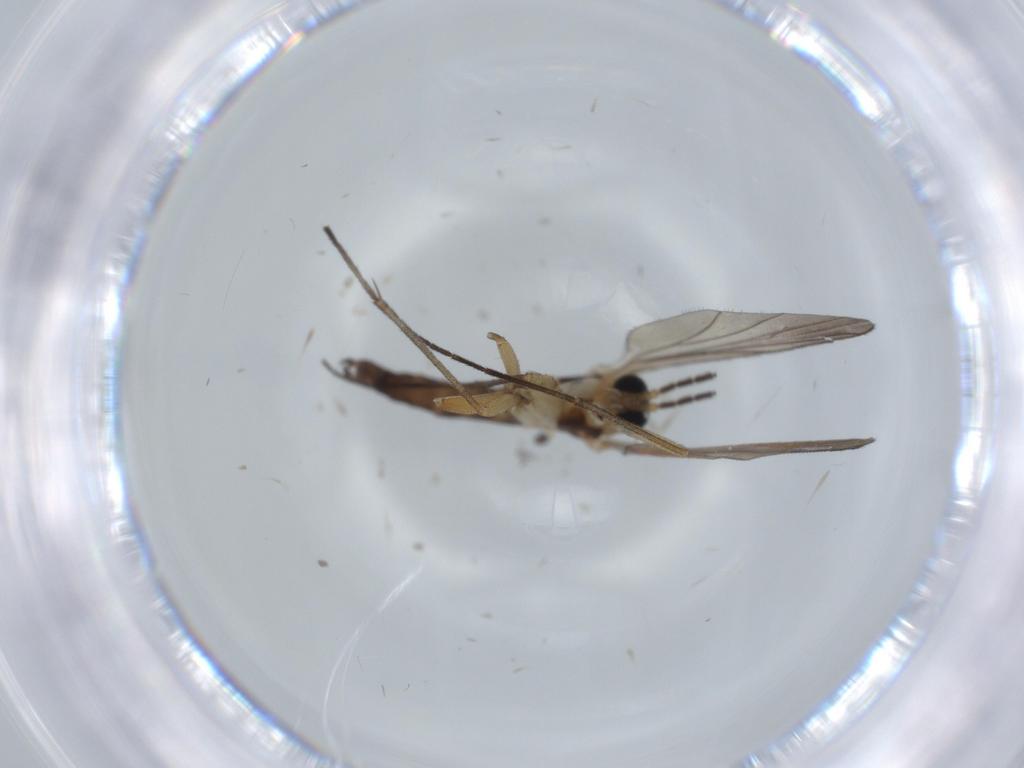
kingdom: Animalia
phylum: Arthropoda
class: Insecta
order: Diptera
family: Sciaridae
